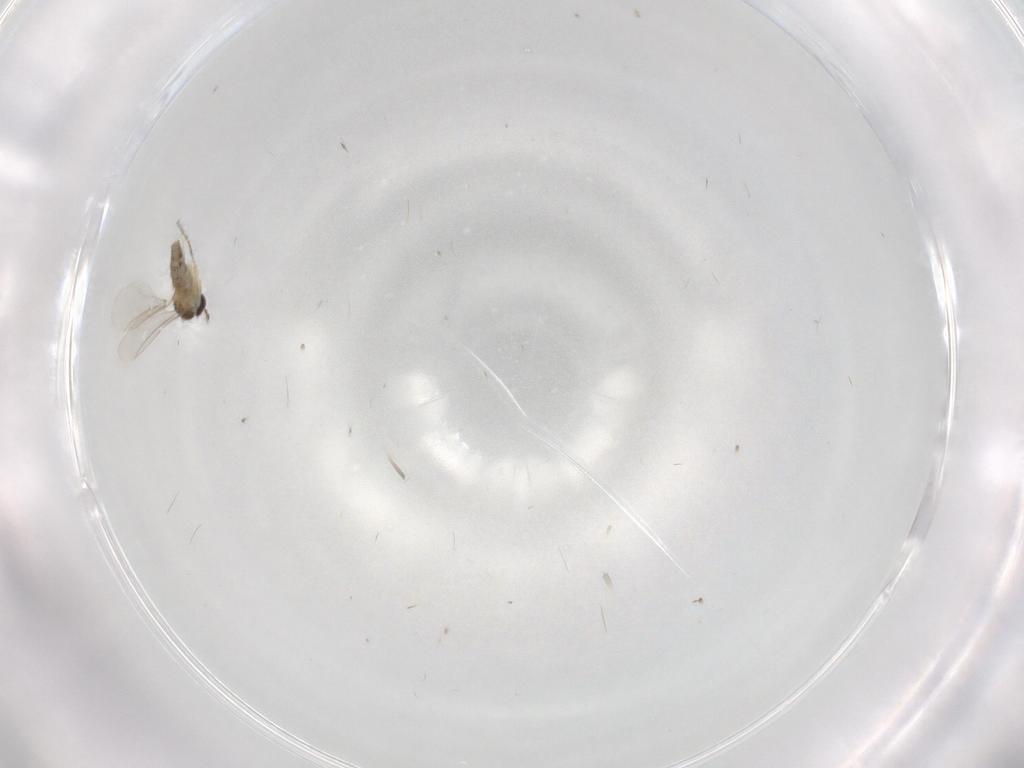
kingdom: Animalia
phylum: Arthropoda
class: Insecta
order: Diptera
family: Cecidomyiidae
